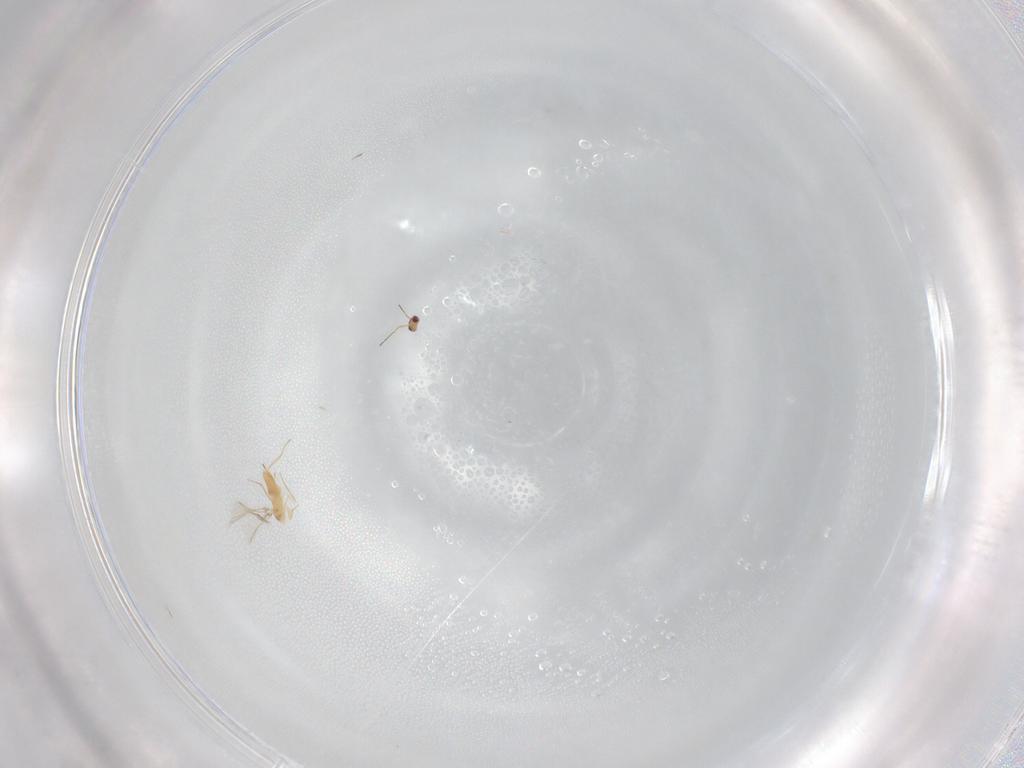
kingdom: Animalia
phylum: Arthropoda
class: Insecta
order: Hymenoptera
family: Mymaridae
